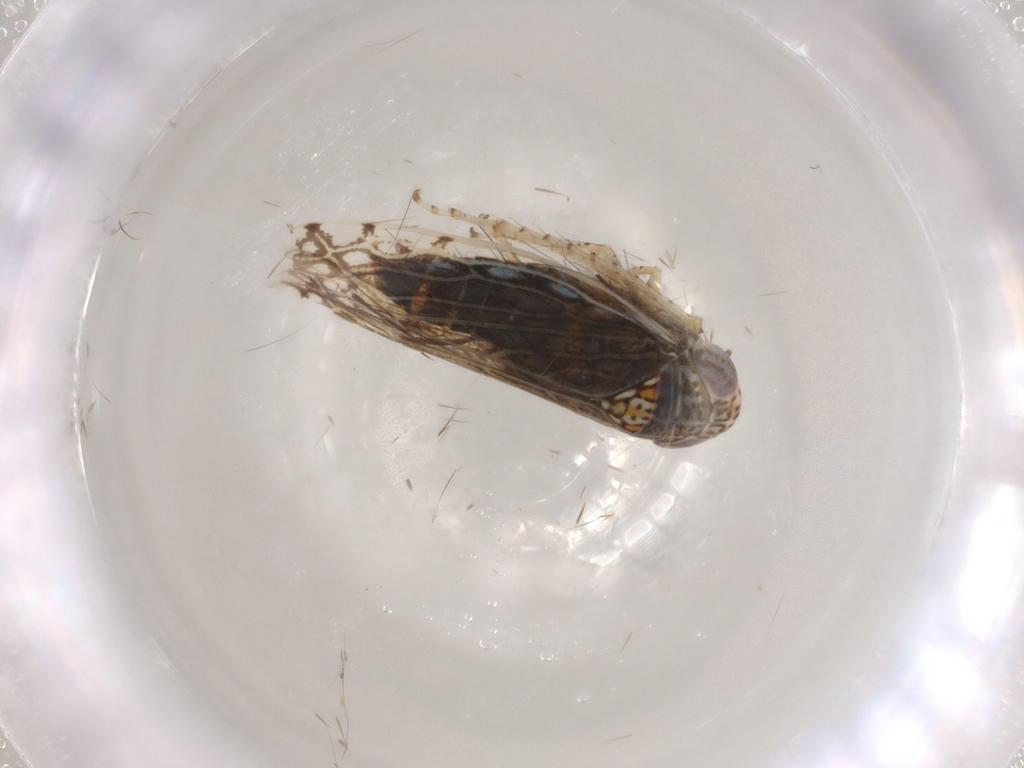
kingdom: Animalia
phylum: Arthropoda
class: Insecta
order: Hemiptera
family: Cicadellidae
